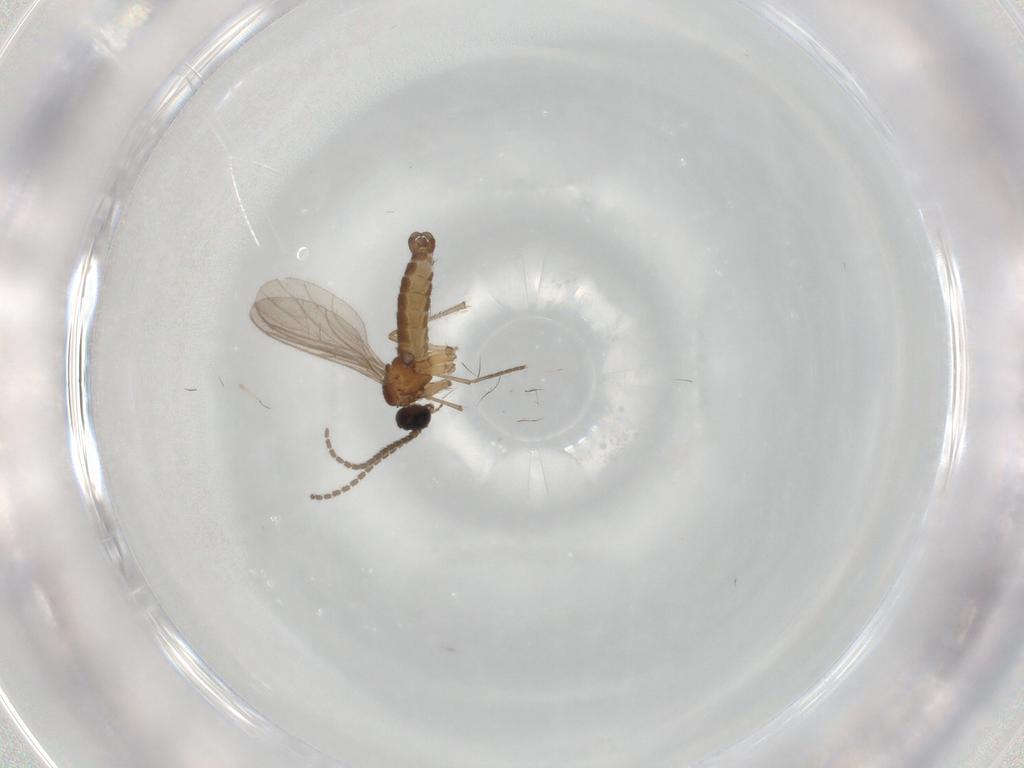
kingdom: Animalia
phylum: Arthropoda
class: Insecta
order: Diptera
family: Sciaridae
